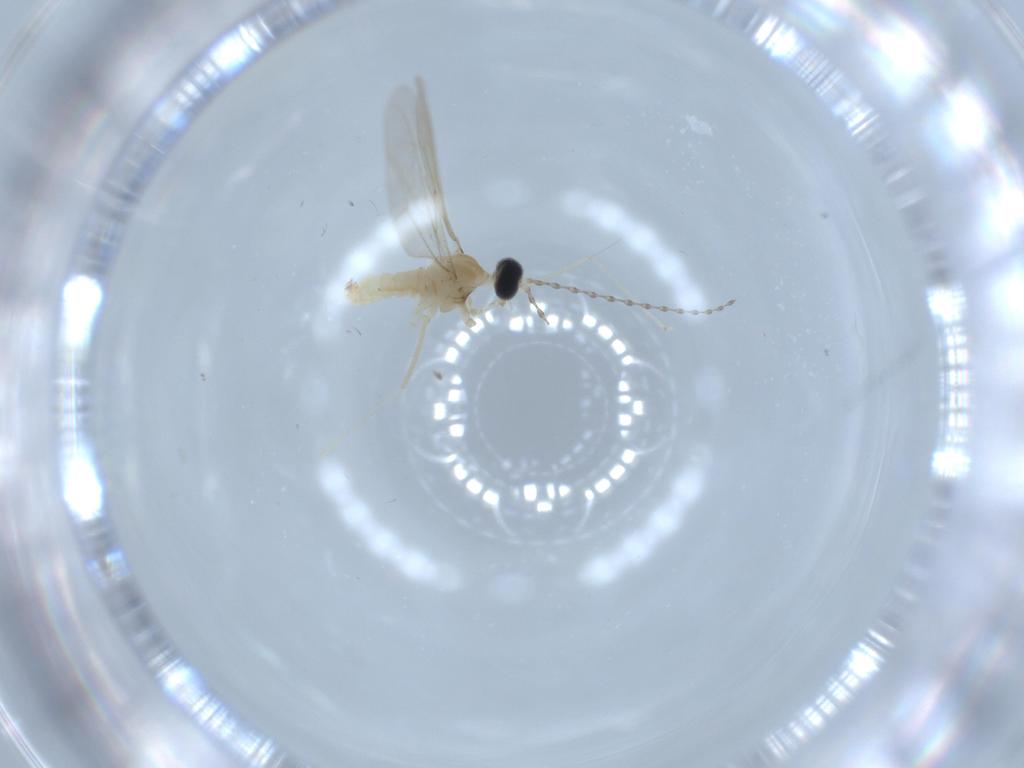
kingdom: Animalia
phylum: Arthropoda
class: Insecta
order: Diptera
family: Cecidomyiidae
